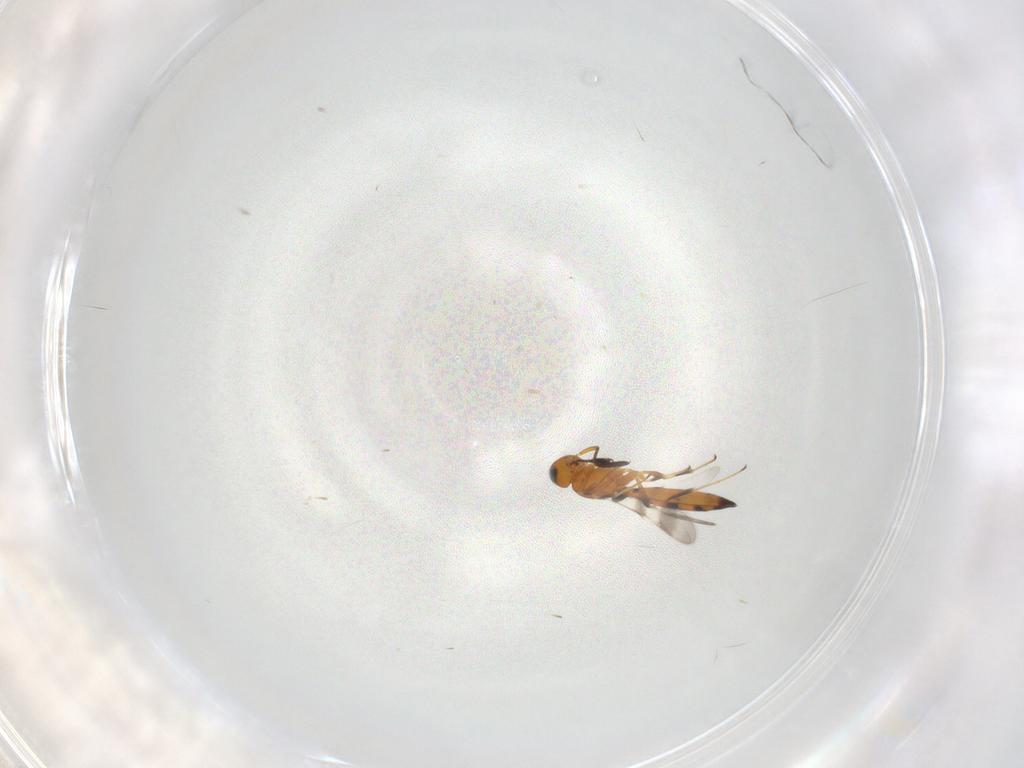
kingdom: Animalia
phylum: Arthropoda
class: Insecta
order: Hymenoptera
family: Scelionidae
